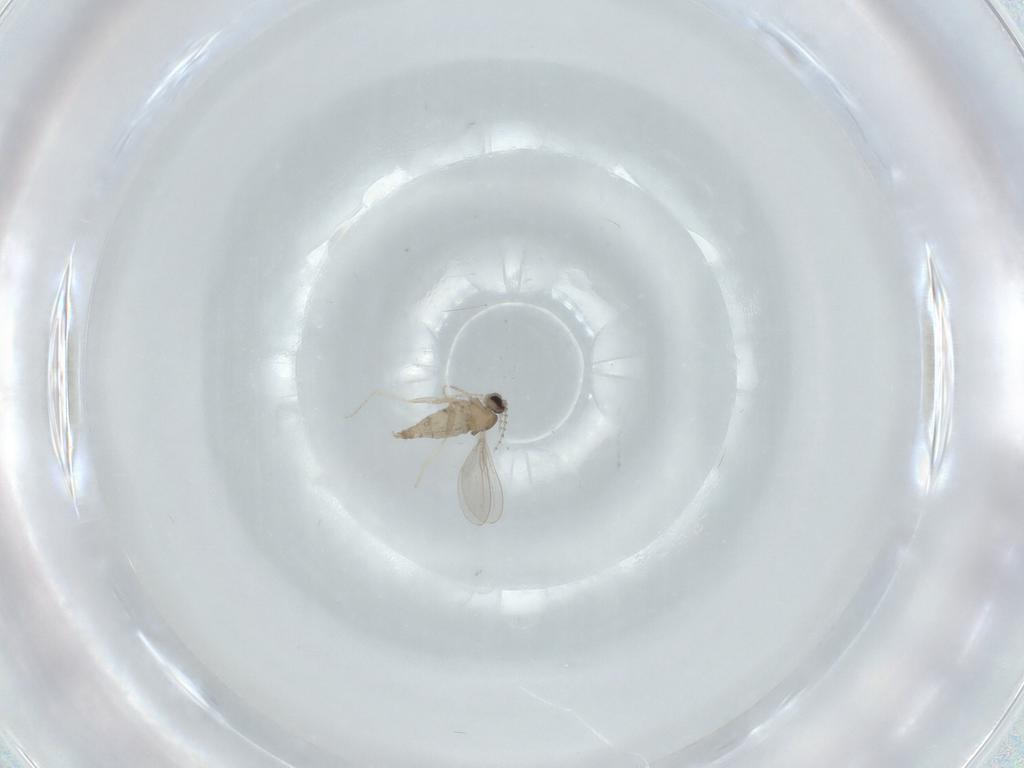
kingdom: Animalia
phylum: Arthropoda
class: Insecta
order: Diptera
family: Cecidomyiidae
